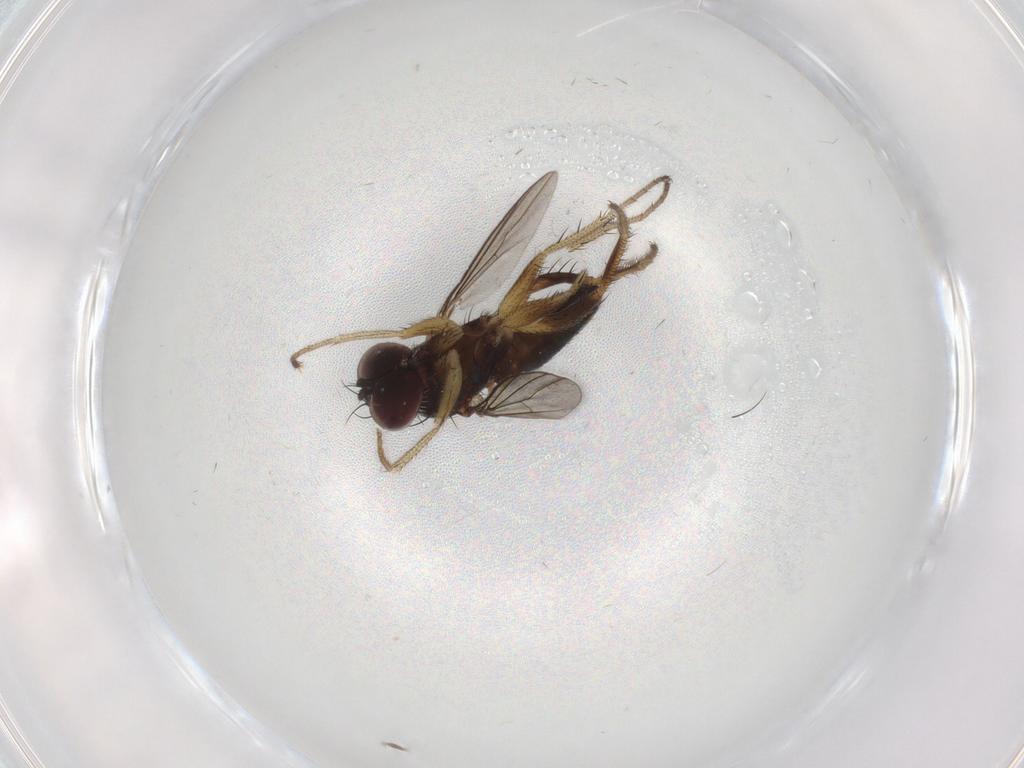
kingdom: Animalia
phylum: Arthropoda
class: Insecta
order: Diptera
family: Dolichopodidae
